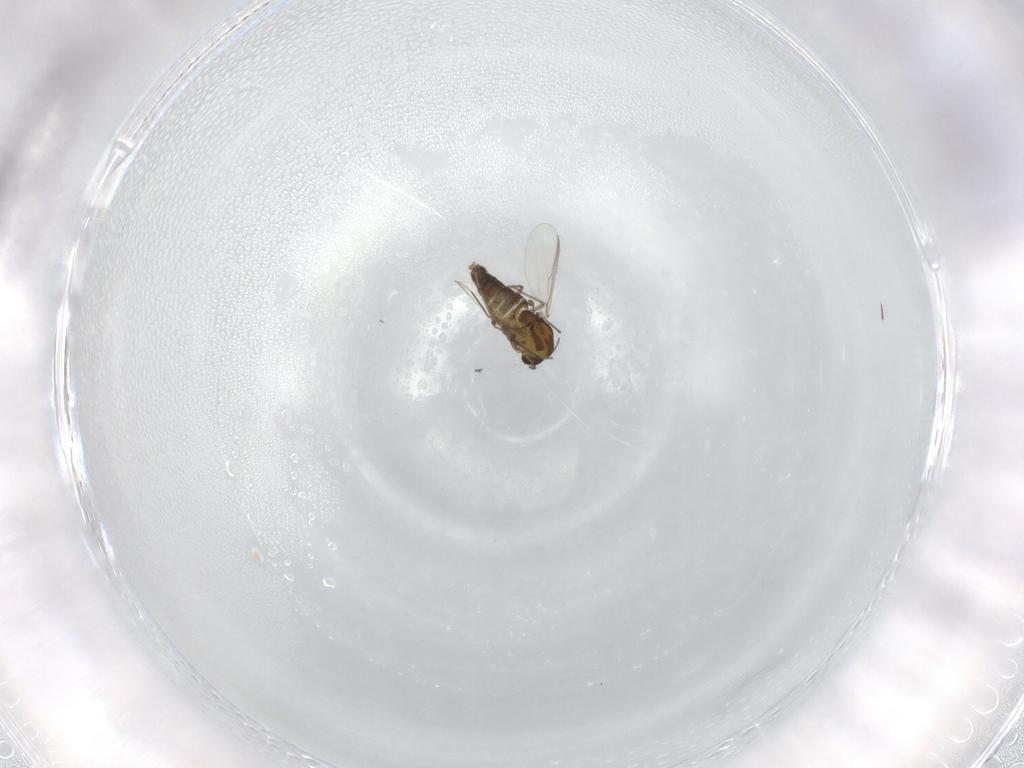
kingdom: Animalia
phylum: Arthropoda
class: Insecta
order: Diptera
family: Chironomidae
